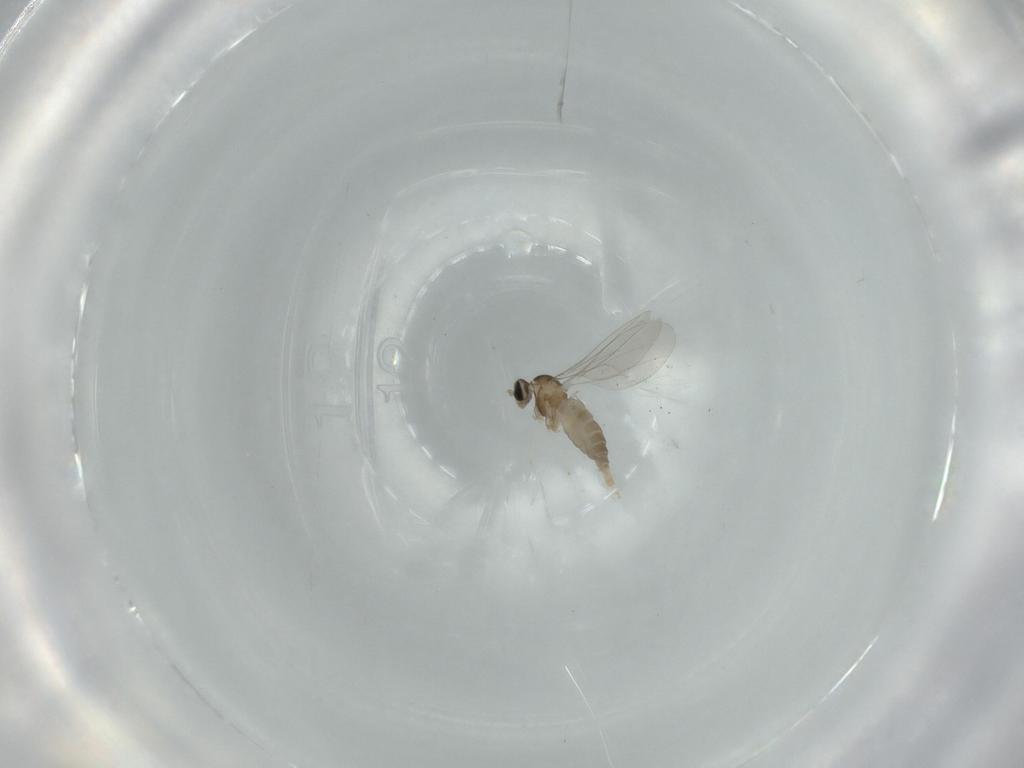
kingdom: Animalia
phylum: Arthropoda
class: Insecta
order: Diptera
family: Cecidomyiidae
